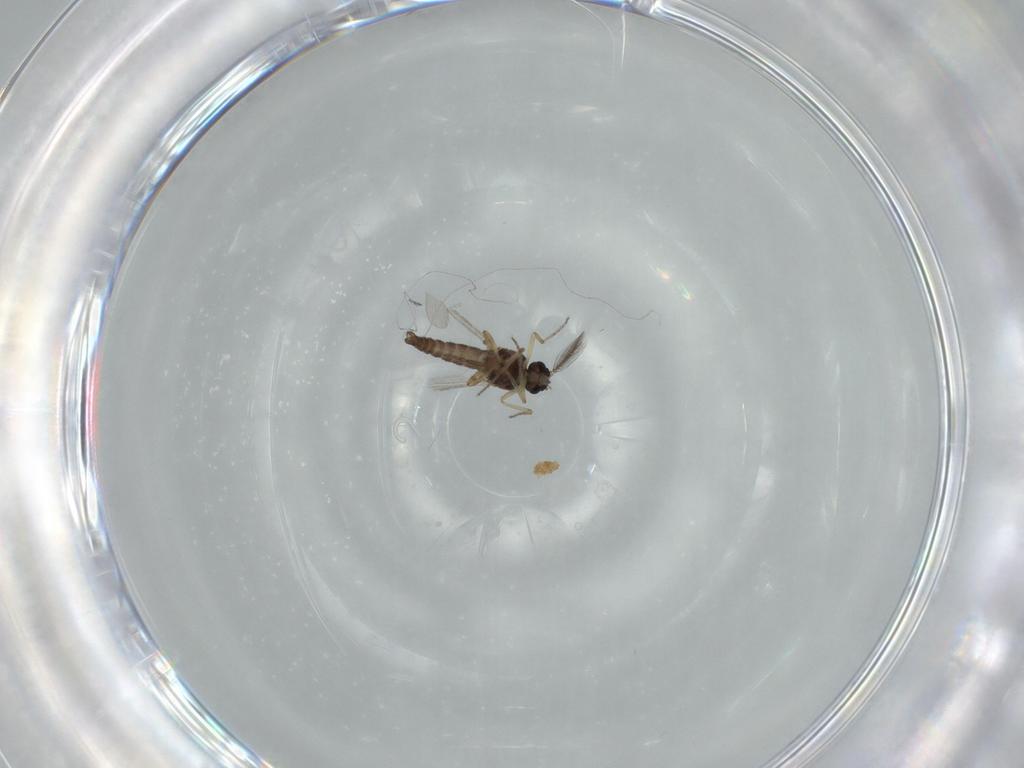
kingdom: Animalia
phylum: Arthropoda
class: Insecta
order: Diptera
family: Ceratopogonidae
